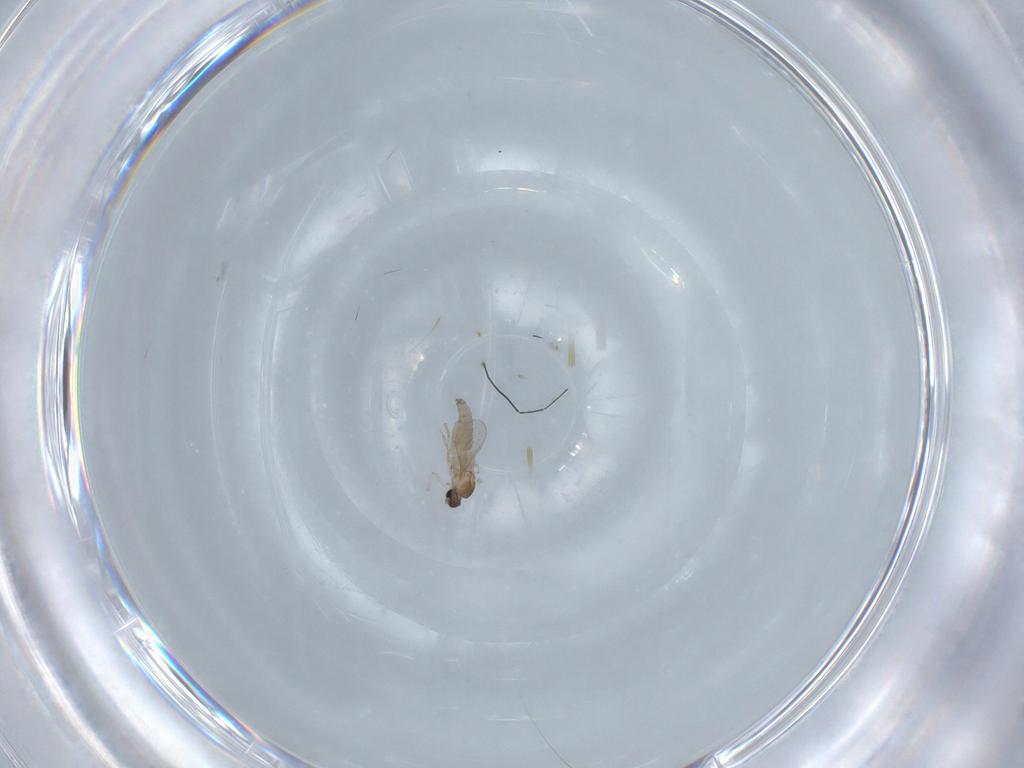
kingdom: Animalia
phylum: Arthropoda
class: Insecta
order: Diptera
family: Cecidomyiidae
